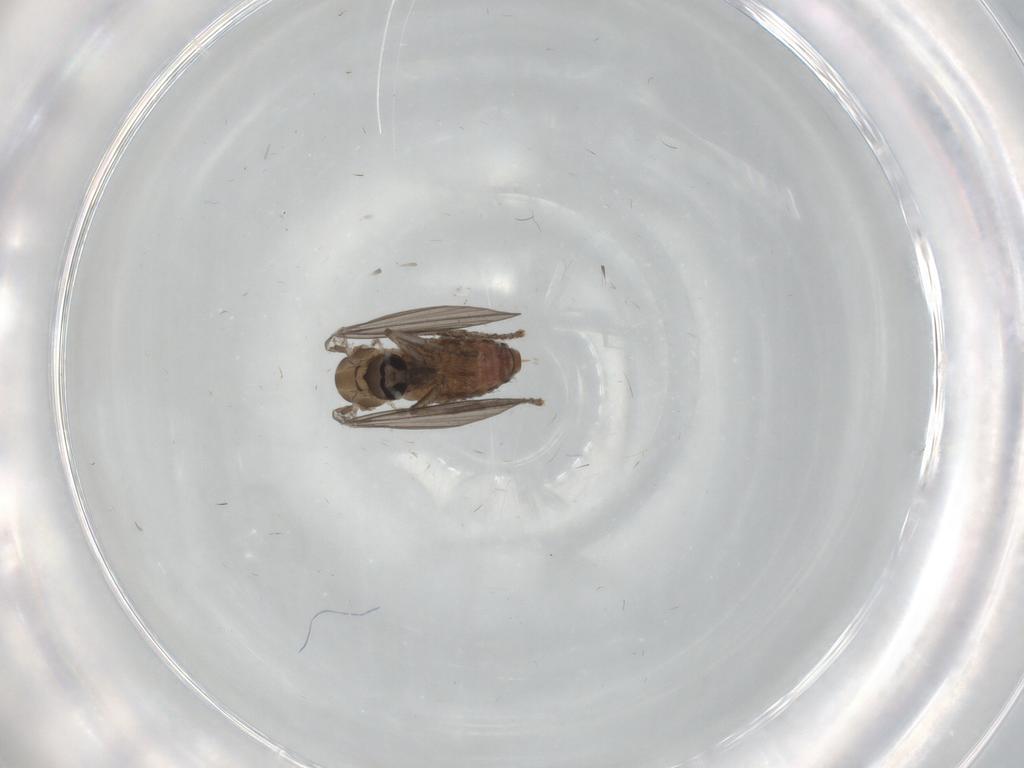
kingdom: Animalia
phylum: Arthropoda
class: Insecta
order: Diptera
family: Psychodidae
